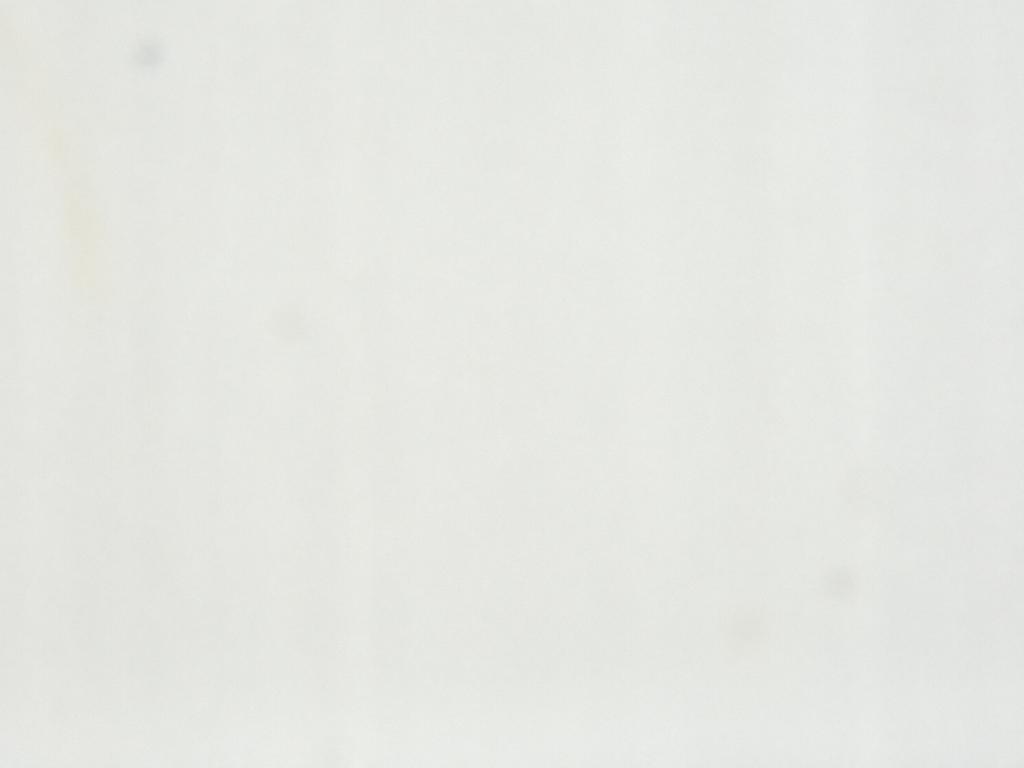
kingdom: Animalia
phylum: Arthropoda
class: Insecta
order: Diptera
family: Dolichopodidae
